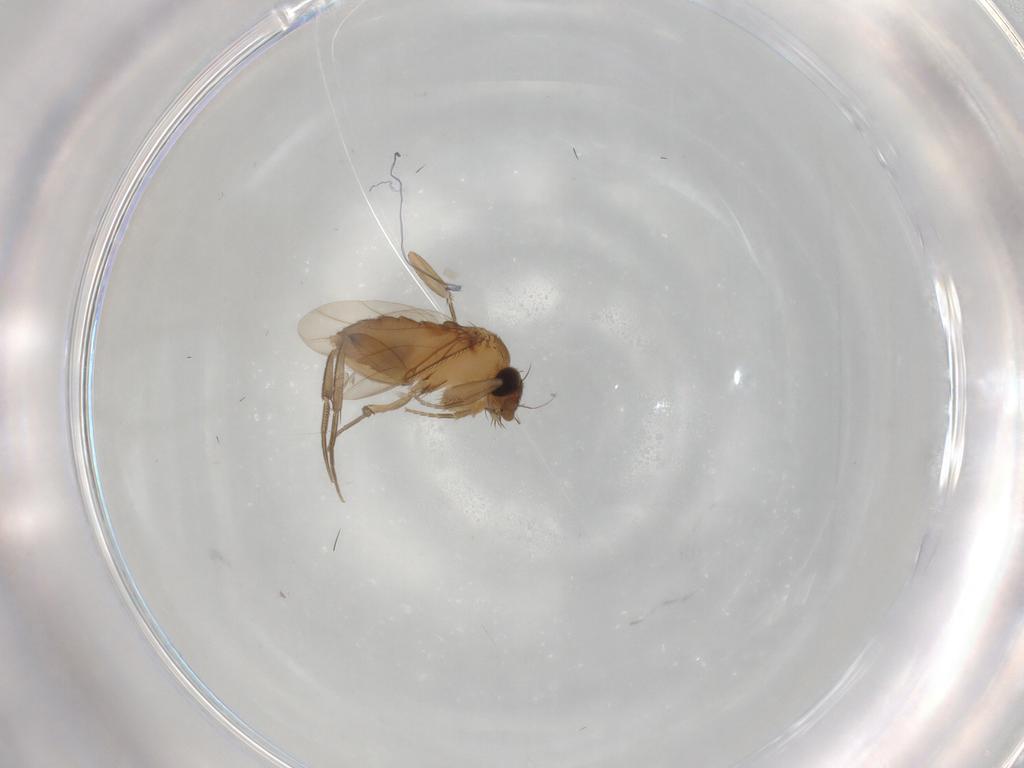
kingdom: Animalia
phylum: Arthropoda
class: Insecta
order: Diptera
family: Phoridae
